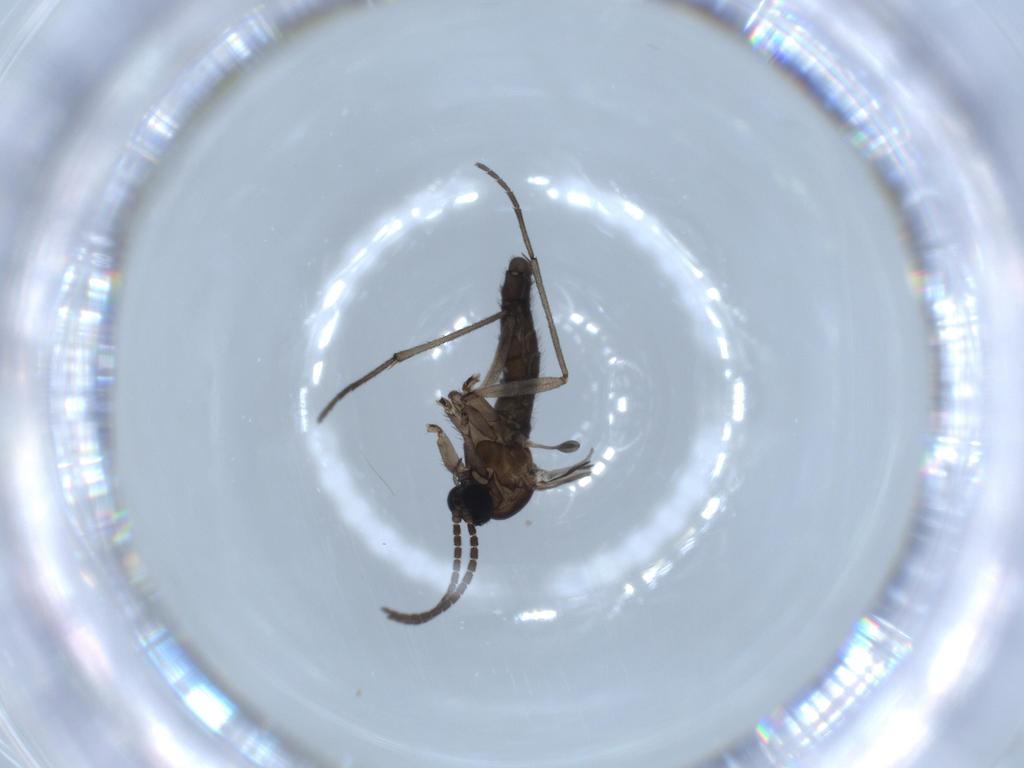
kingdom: Animalia
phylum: Arthropoda
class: Insecta
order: Diptera
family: Sciaridae
